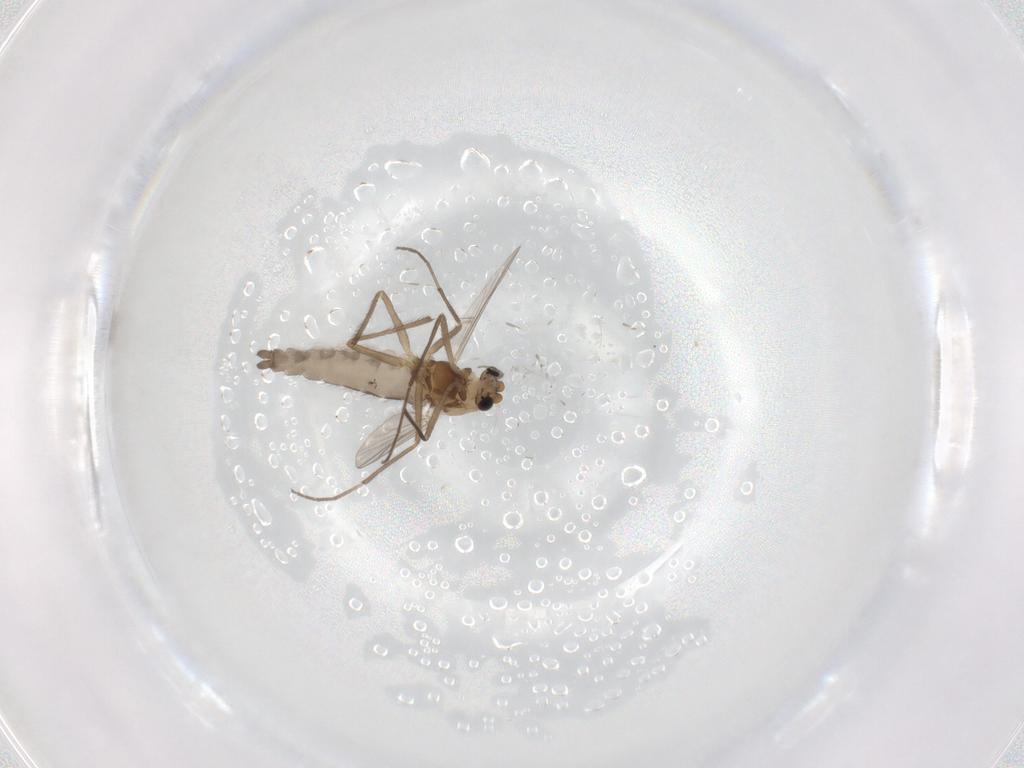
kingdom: Animalia
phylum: Arthropoda
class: Insecta
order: Diptera
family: Chironomidae
